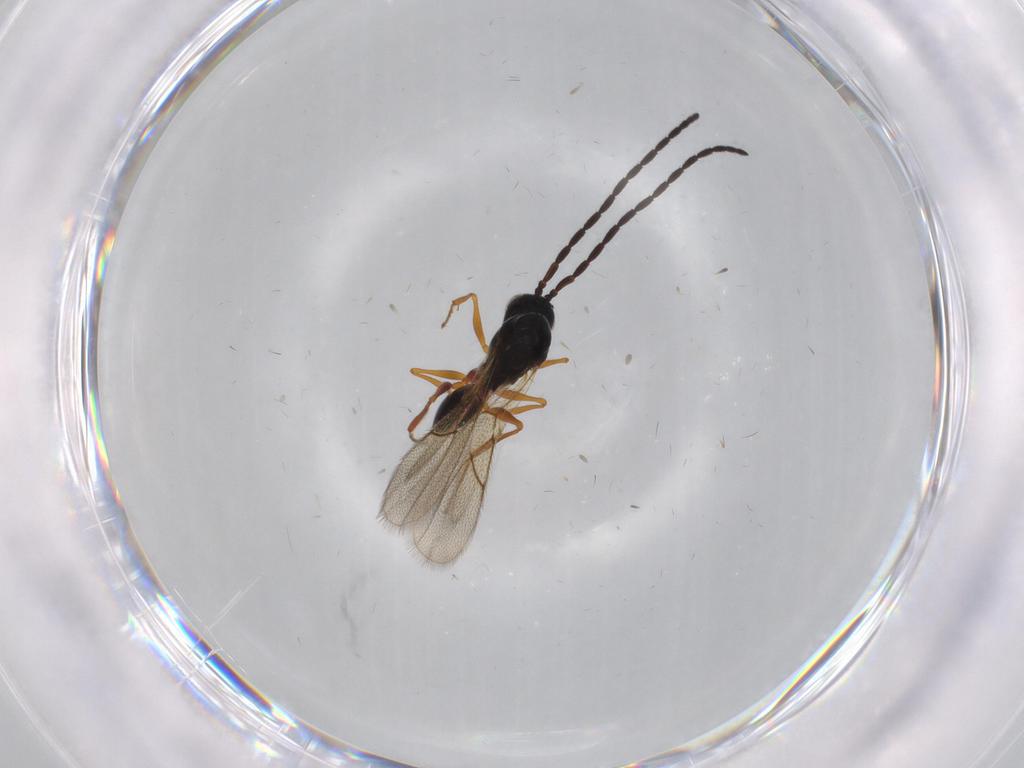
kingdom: Animalia
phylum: Arthropoda
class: Insecta
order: Hymenoptera
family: Figitidae
